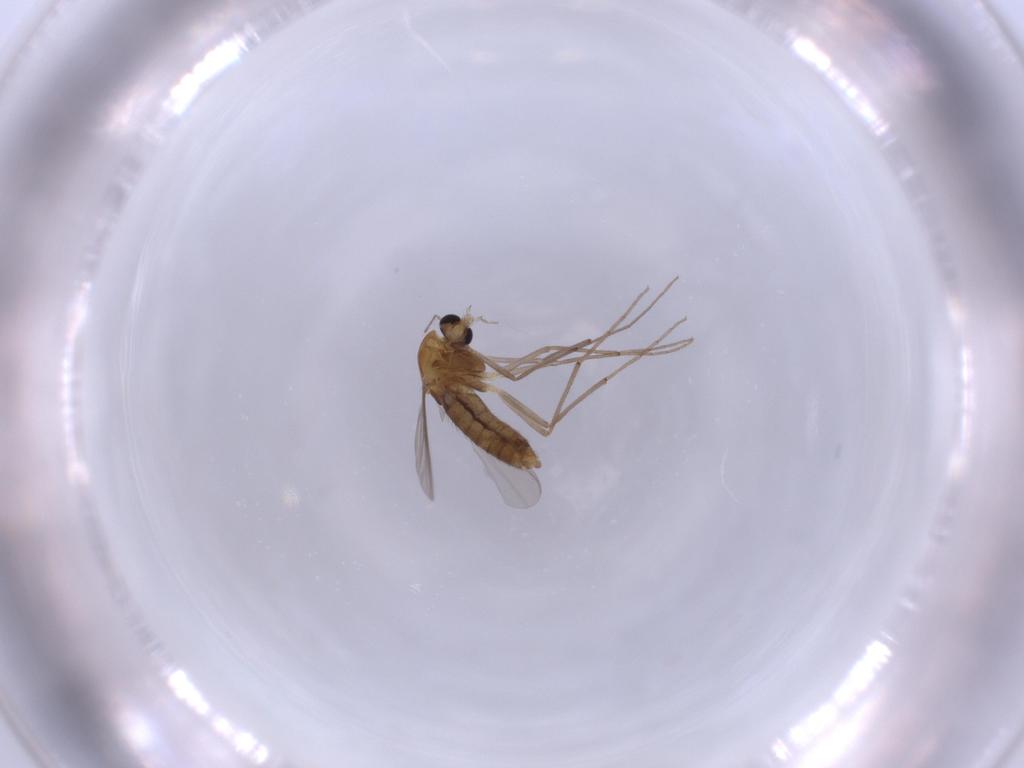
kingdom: Animalia
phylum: Arthropoda
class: Insecta
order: Diptera
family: Chironomidae
